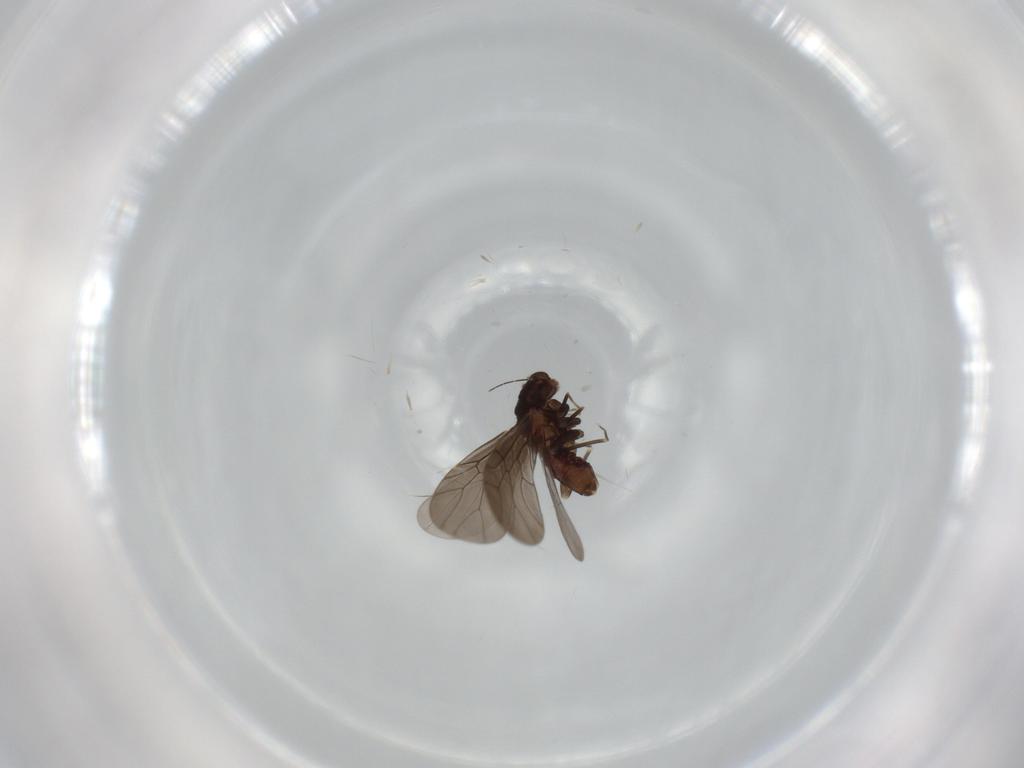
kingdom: Animalia
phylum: Arthropoda
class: Insecta
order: Psocodea
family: Lepidopsocidae
